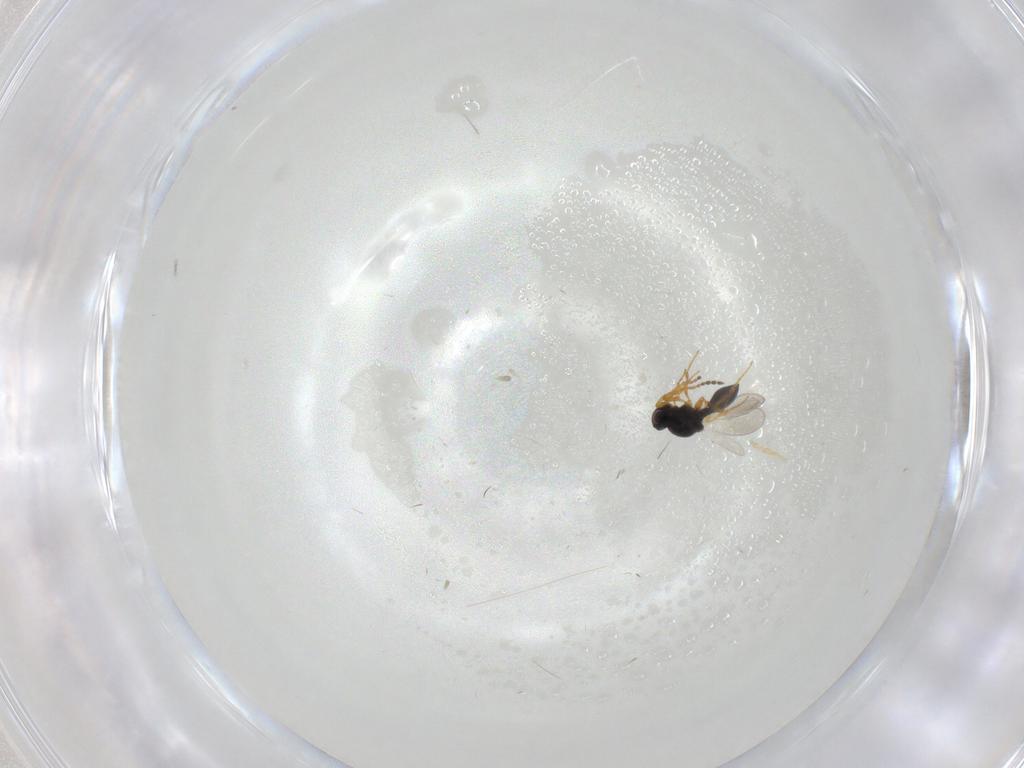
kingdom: Animalia
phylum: Arthropoda
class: Insecta
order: Hymenoptera
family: Platygastridae
